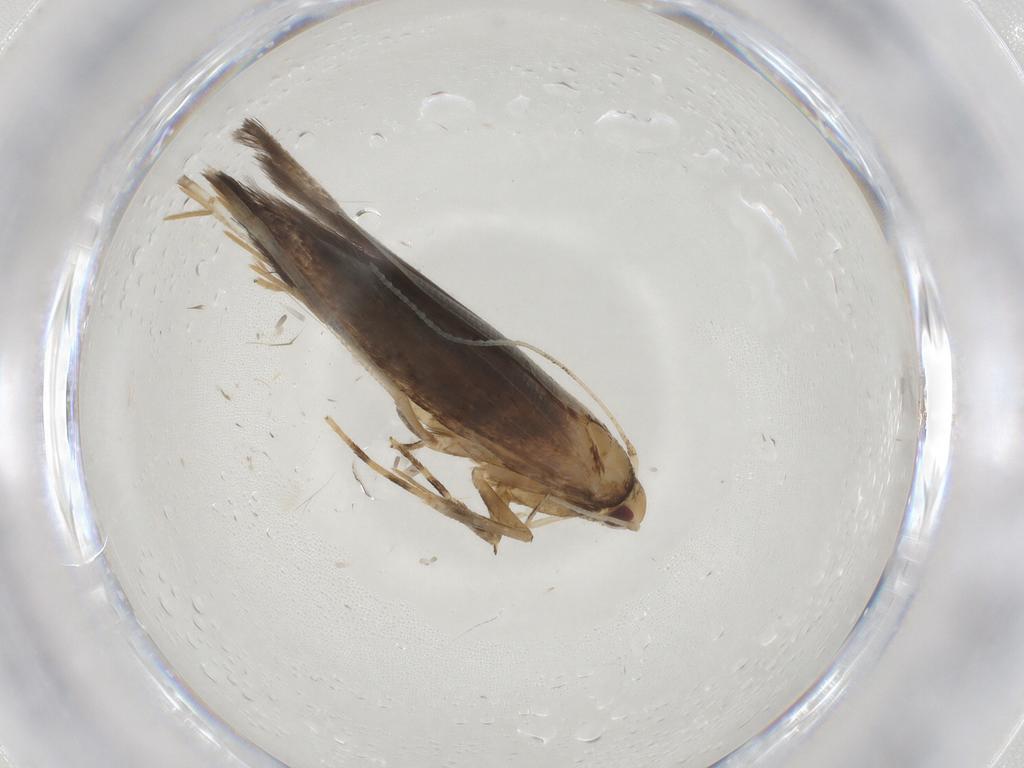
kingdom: Animalia
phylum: Arthropoda
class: Insecta
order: Lepidoptera
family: Cosmopterigidae
